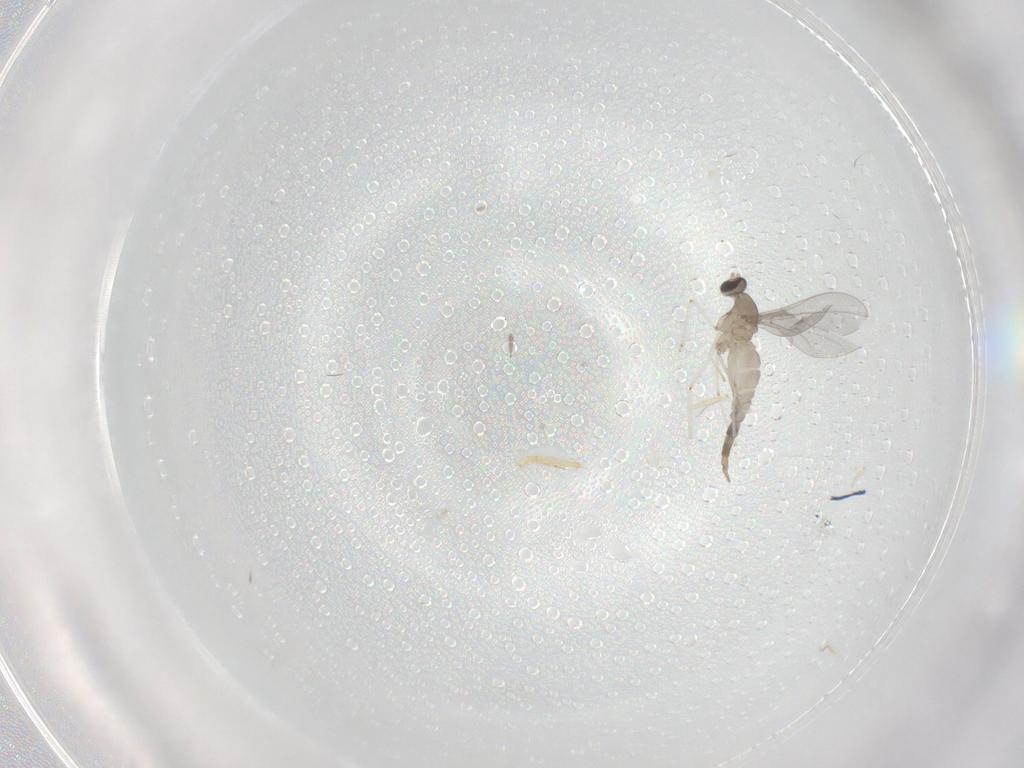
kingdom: Animalia
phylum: Arthropoda
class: Insecta
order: Diptera
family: Cecidomyiidae
